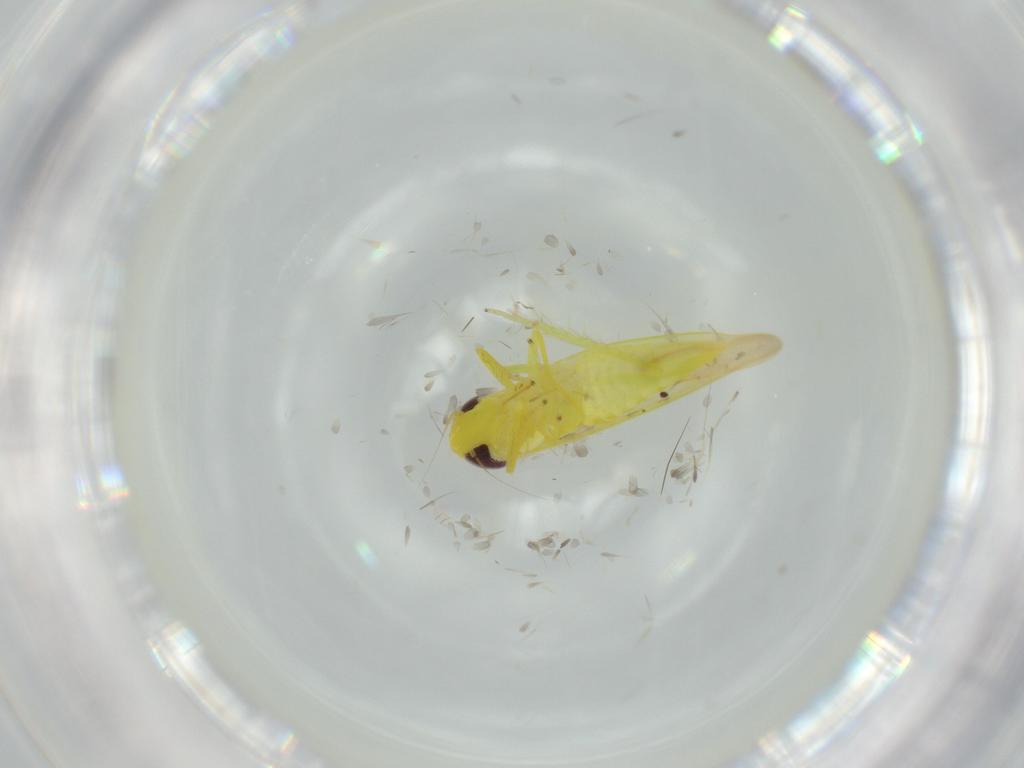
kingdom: Animalia
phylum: Arthropoda
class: Insecta
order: Hemiptera
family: Cicadellidae
